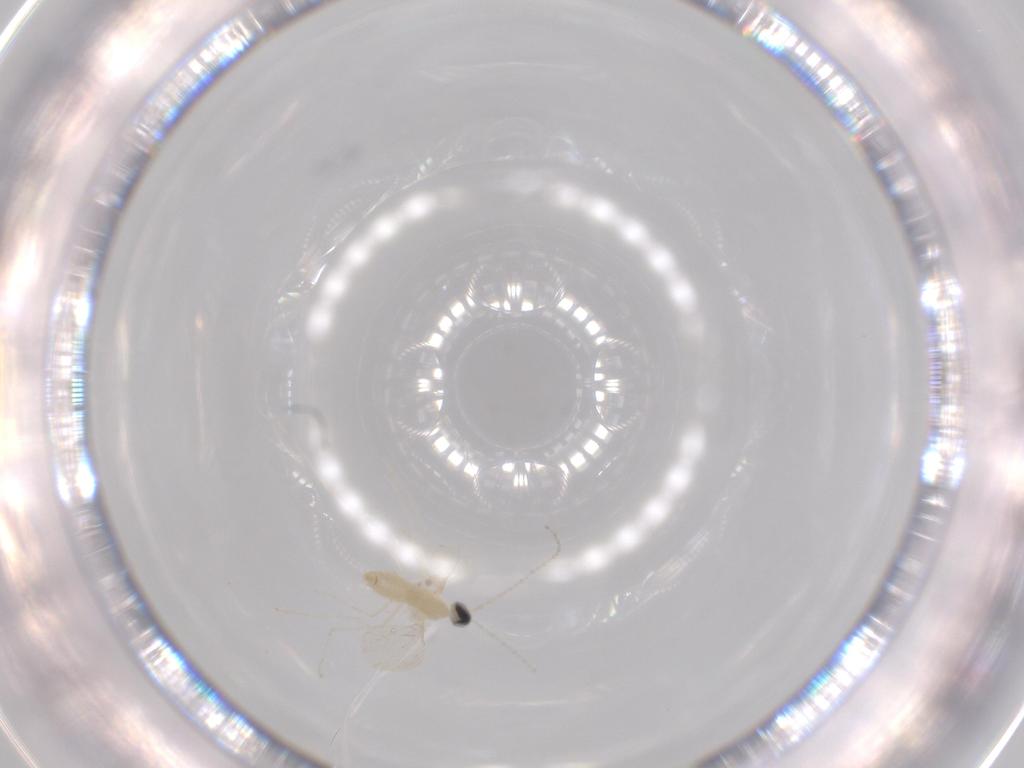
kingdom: Animalia
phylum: Arthropoda
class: Insecta
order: Diptera
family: Cecidomyiidae
